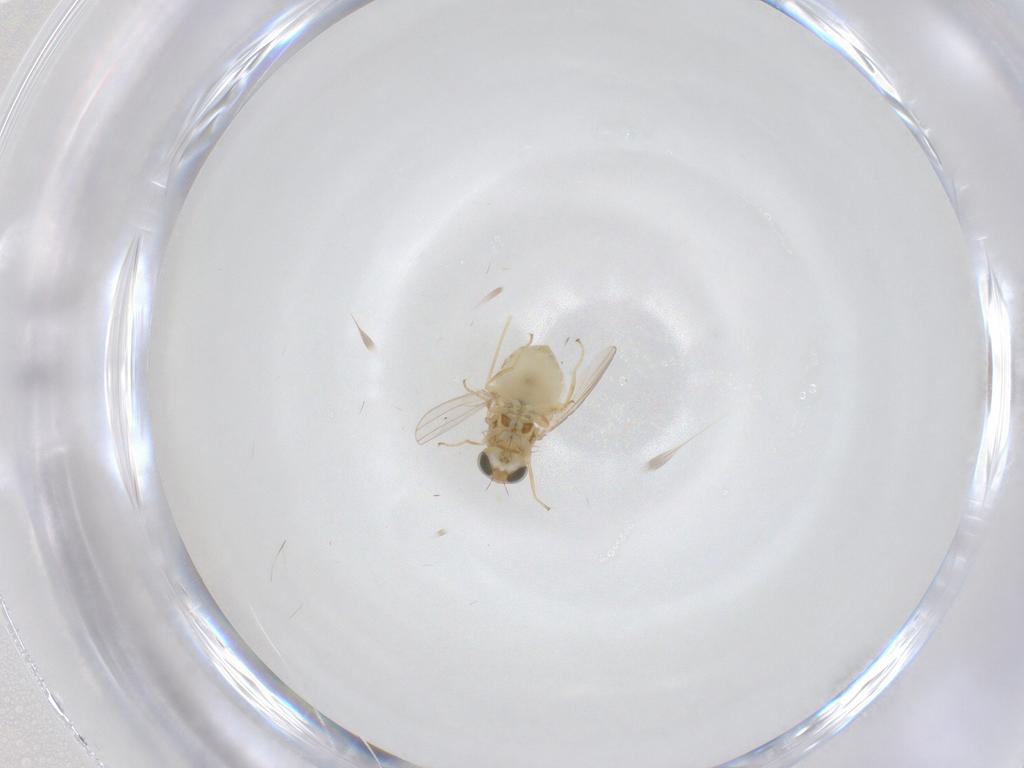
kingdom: Animalia
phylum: Arthropoda
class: Insecta
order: Diptera
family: Chyromyidae
